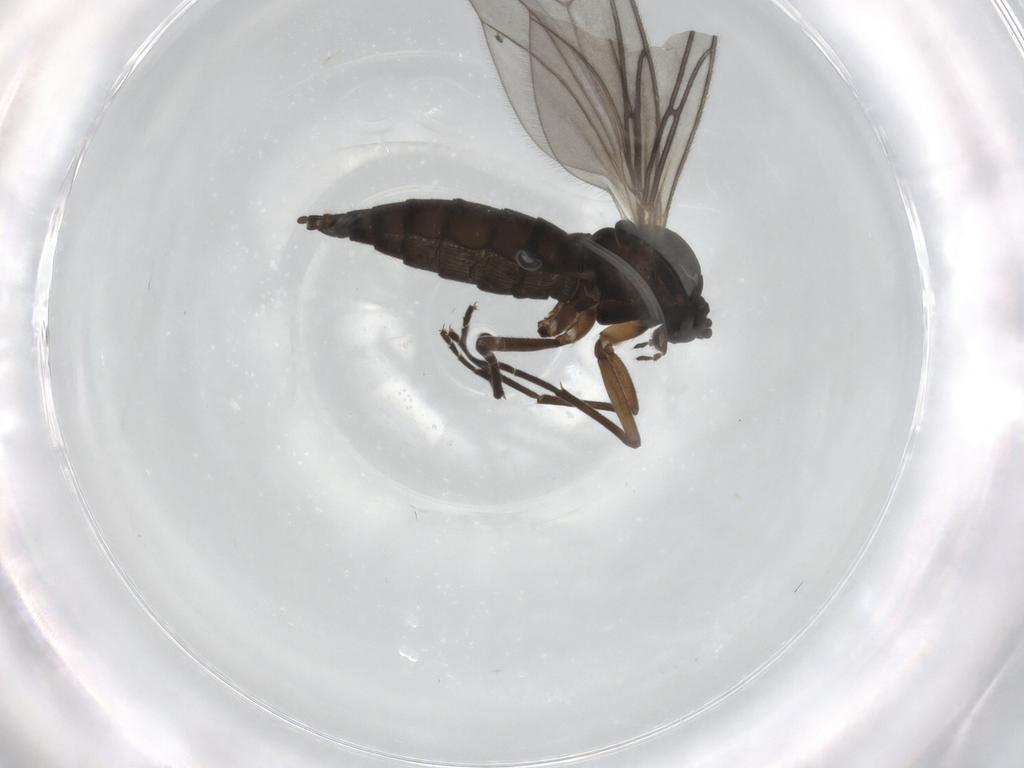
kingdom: Animalia
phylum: Arthropoda
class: Insecta
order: Diptera
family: Sciaridae
